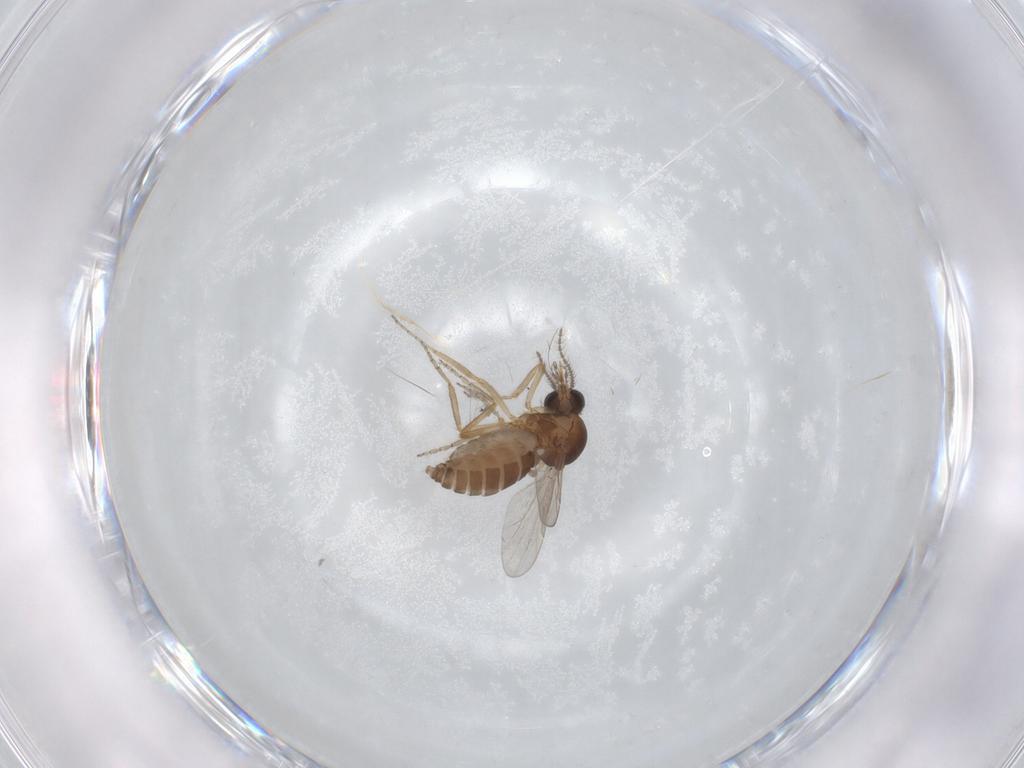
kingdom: Animalia
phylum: Arthropoda
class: Insecta
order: Diptera
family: Ceratopogonidae
